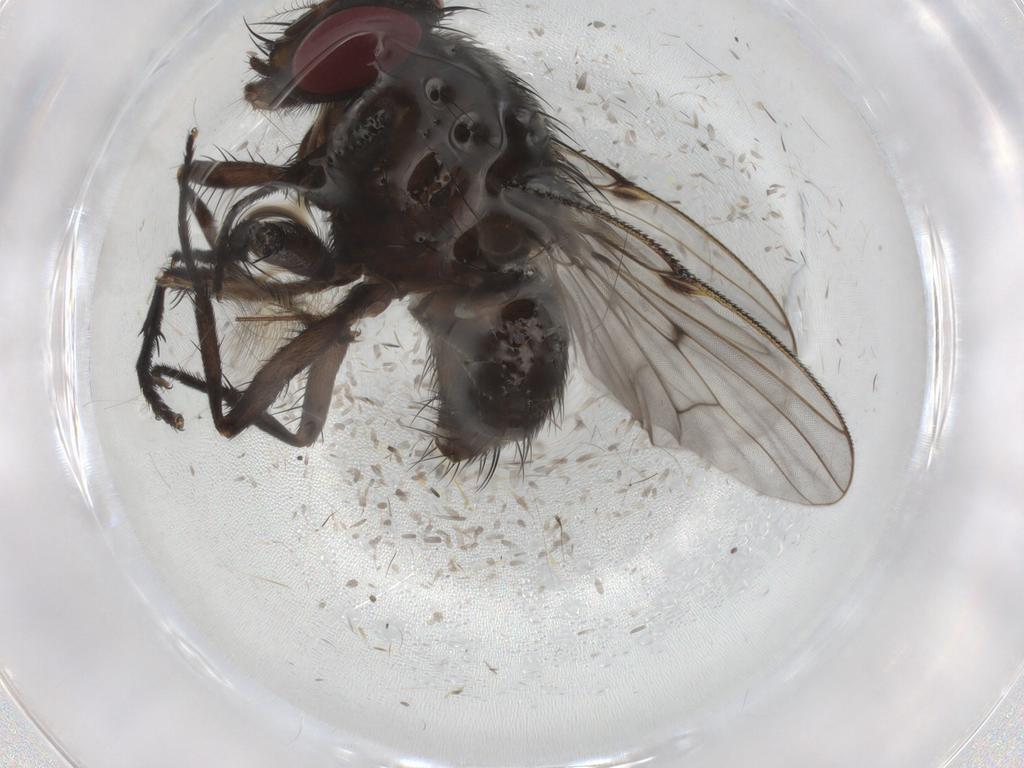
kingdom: Animalia
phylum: Arthropoda
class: Insecta
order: Diptera
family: Muscidae
